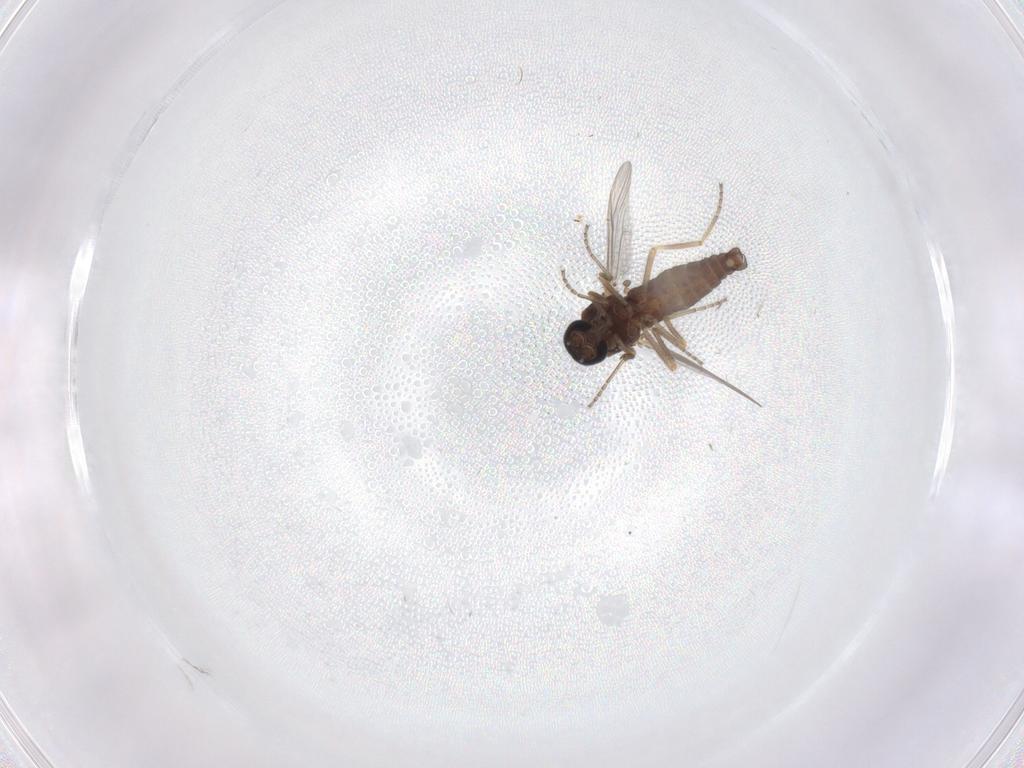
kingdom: Animalia
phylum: Arthropoda
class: Insecta
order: Diptera
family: Ceratopogonidae
